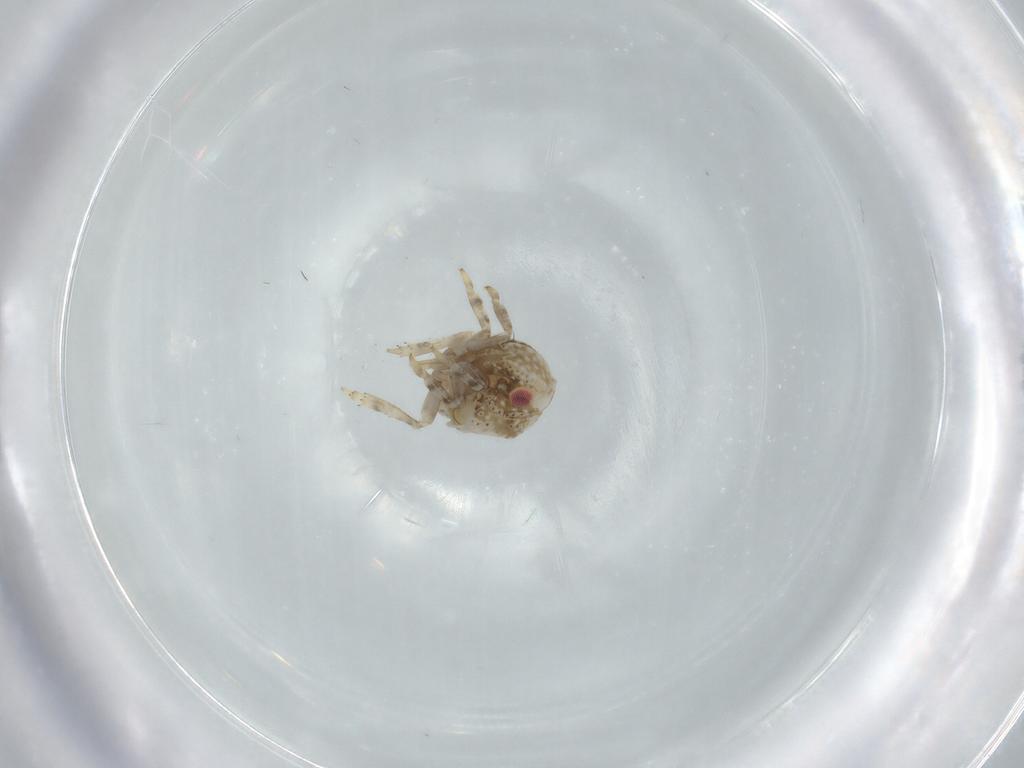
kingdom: Animalia
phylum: Arthropoda
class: Insecta
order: Hemiptera
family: Acanaloniidae
